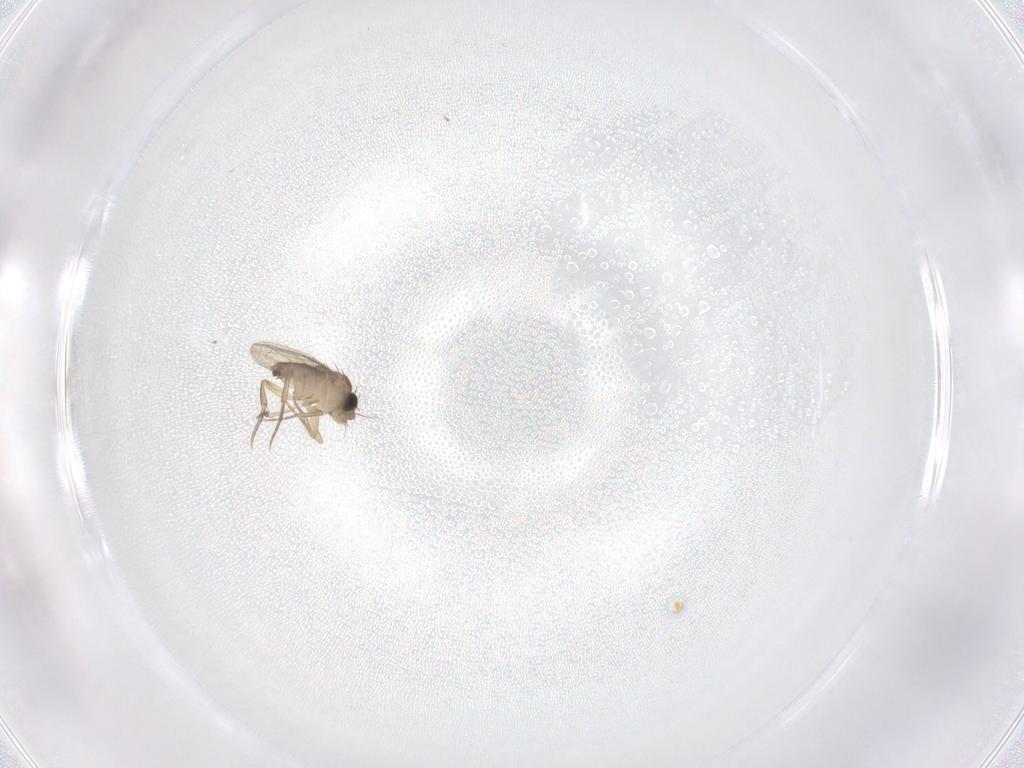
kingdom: Animalia
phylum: Arthropoda
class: Insecta
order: Diptera
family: Phoridae
